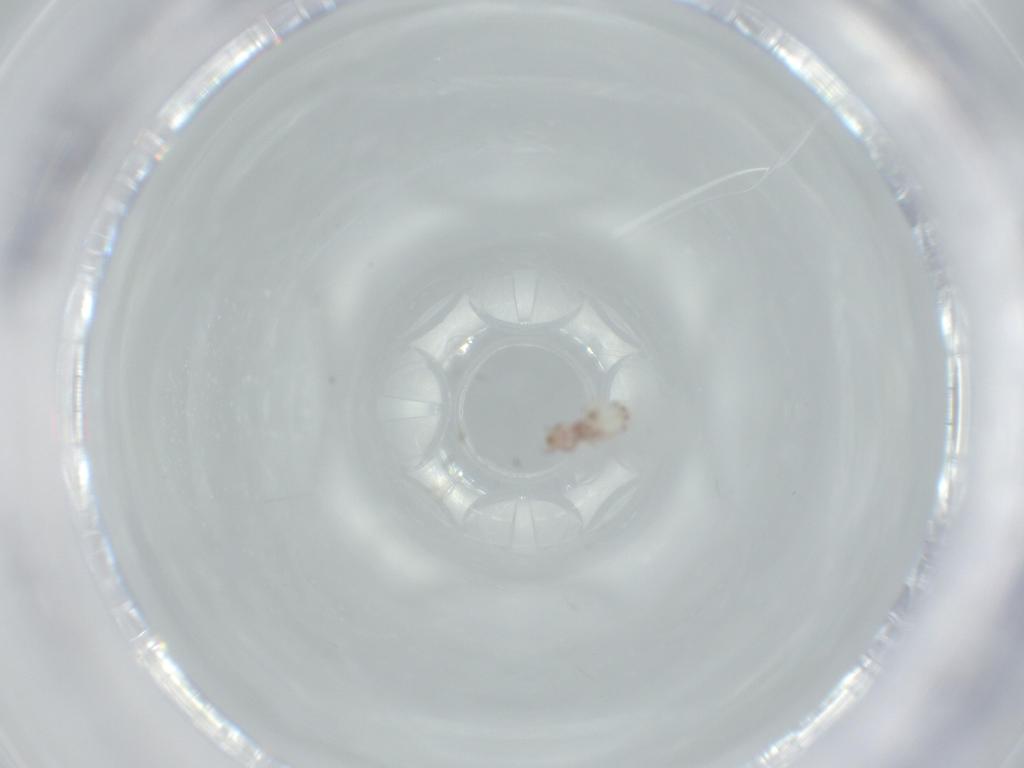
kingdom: Animalia
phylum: Arthropoda
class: Insecta
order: Psocodea
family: Liposcelididae
